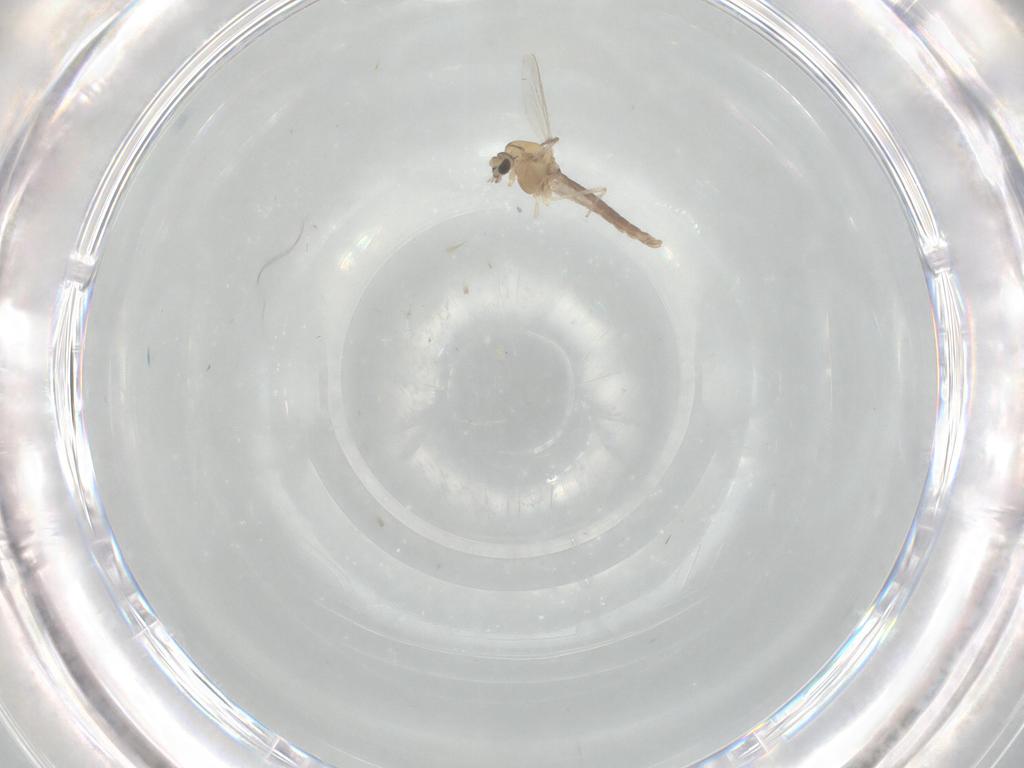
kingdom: Animalia
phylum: Arthropoda
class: Insecta
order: Diptera
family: Chironomidae
